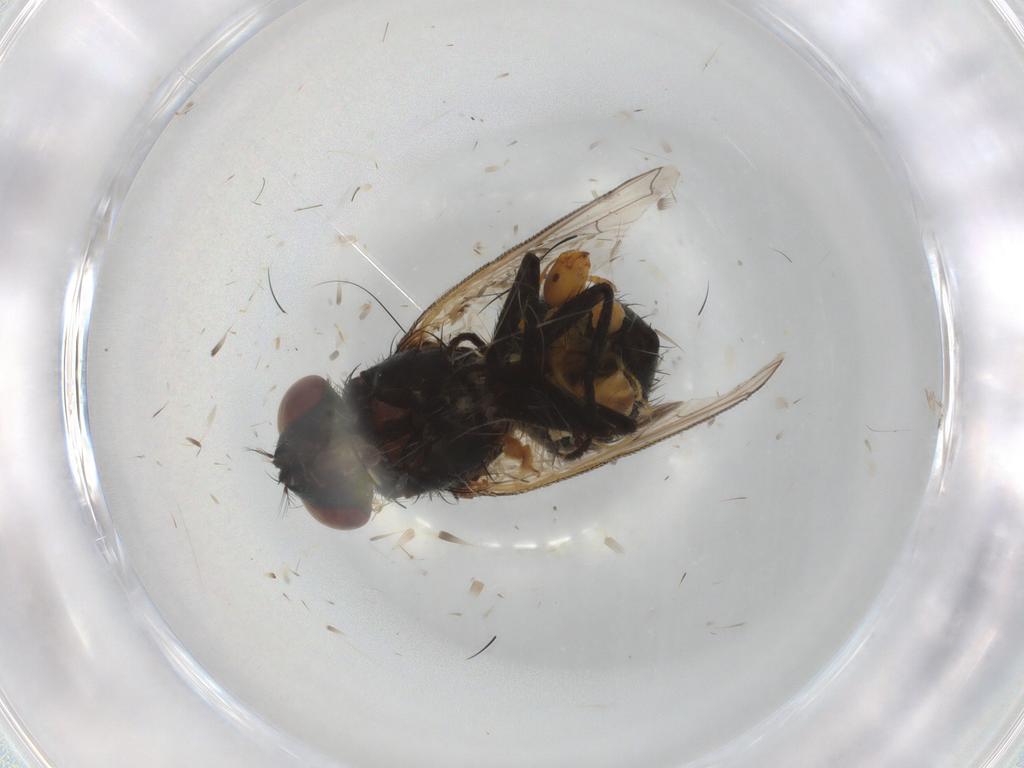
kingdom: Animalia
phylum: Arthropoda
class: Insecta
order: Diptera
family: Glossinidae
